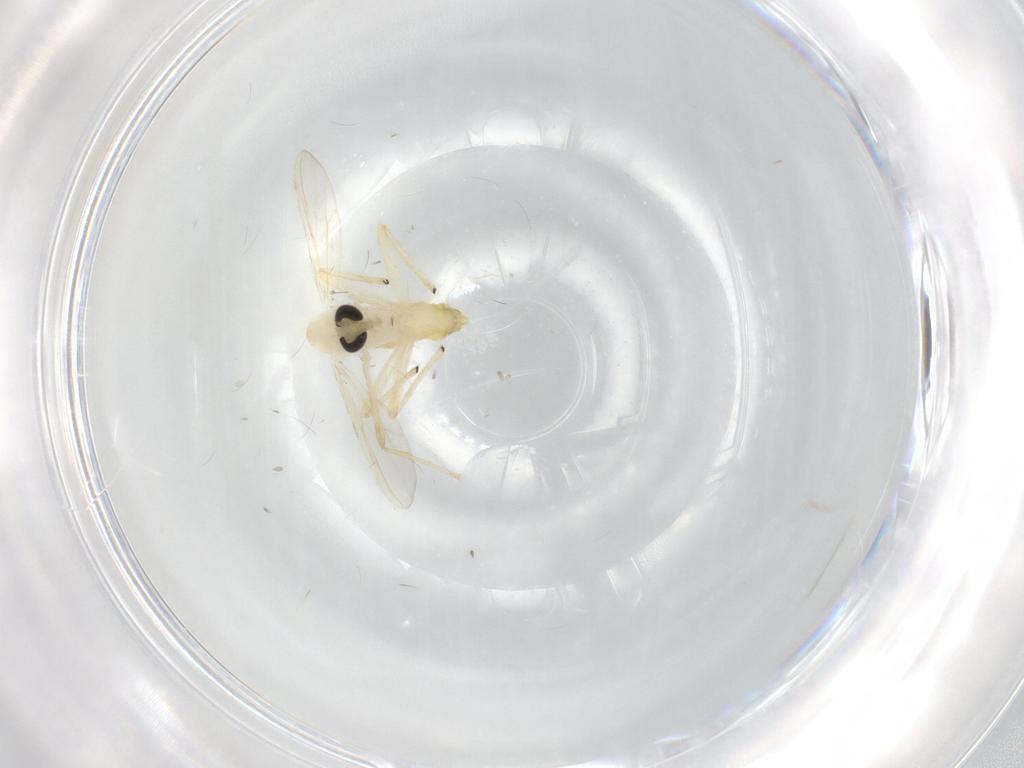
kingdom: Animalia
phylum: Arthropoda
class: Insecta
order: Diptera
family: Chironomidae
